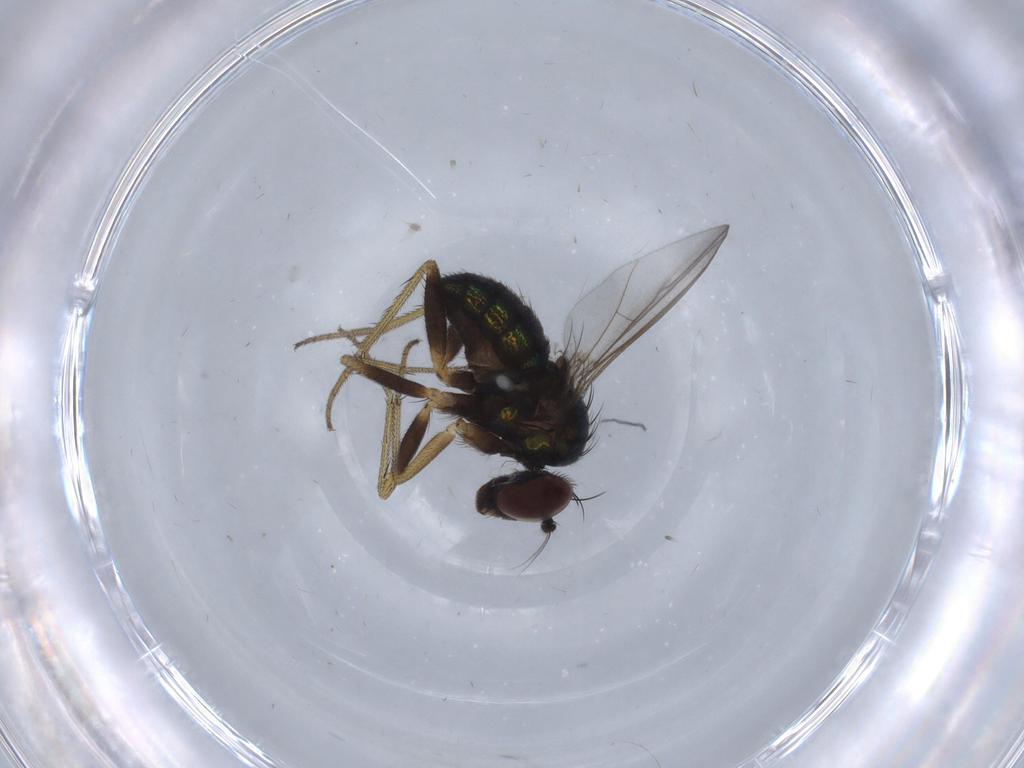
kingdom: Animalia
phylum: Arthropoda
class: Insecta
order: Diptera
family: Dolichopodidae
